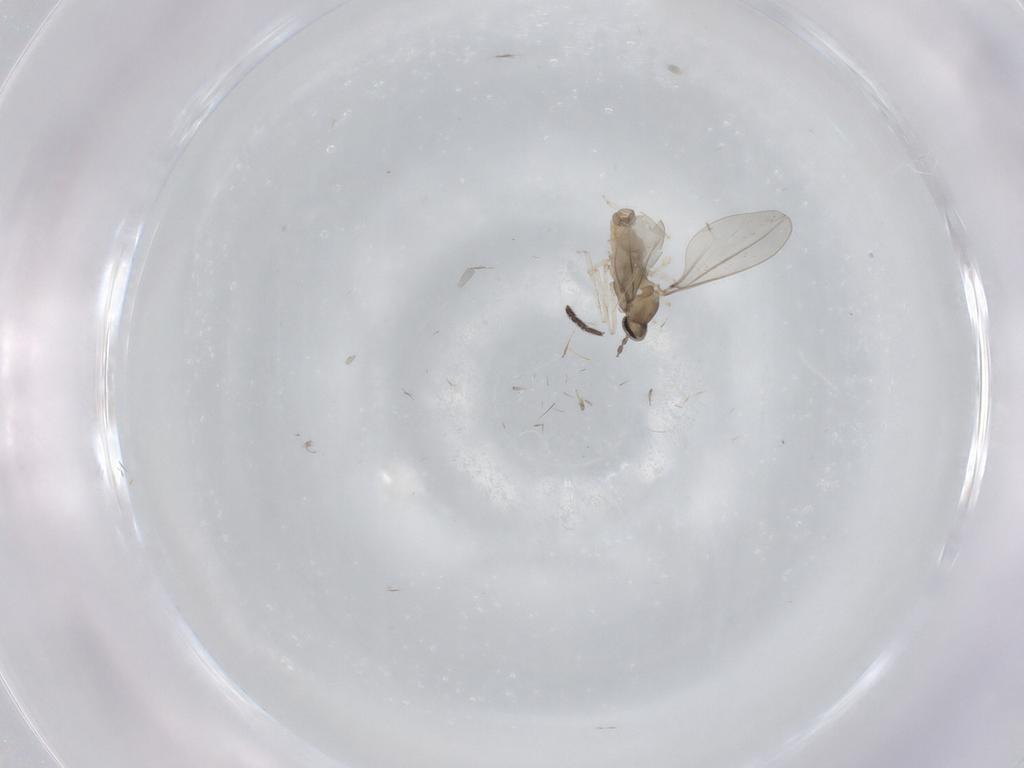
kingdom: Animalia
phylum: Arthropoda
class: Insecta
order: Diptera
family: Cecidomyiidae
